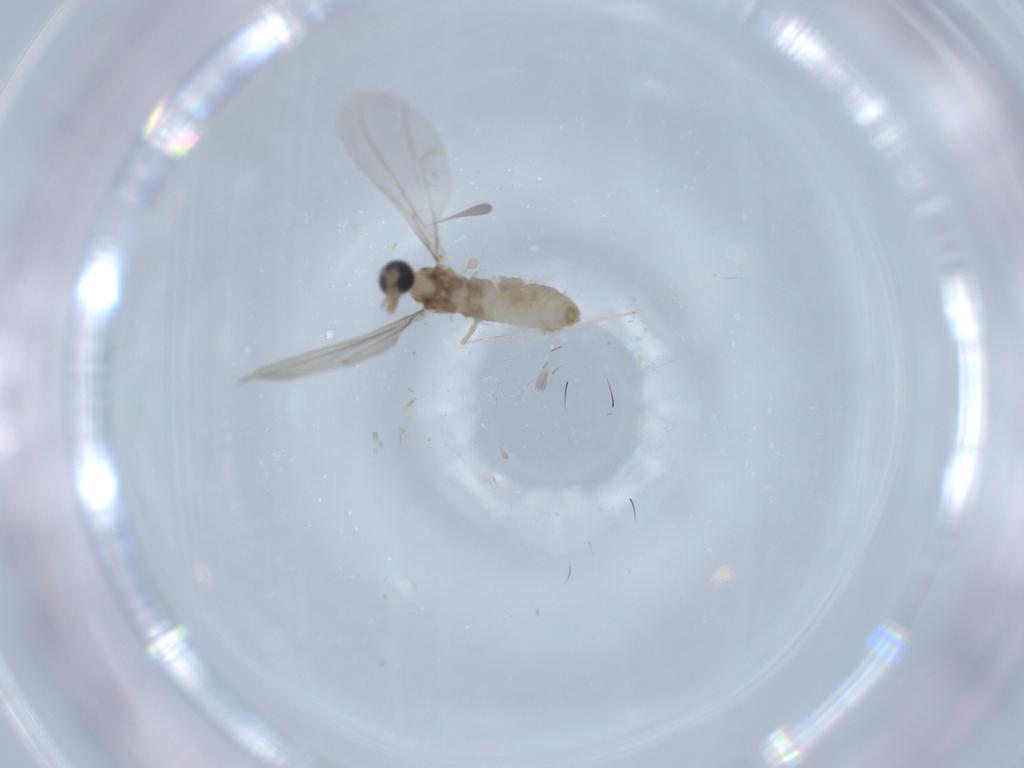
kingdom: Animalia
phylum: Arthropoda
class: Insecta
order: Diptera
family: Cecidomyiidae
